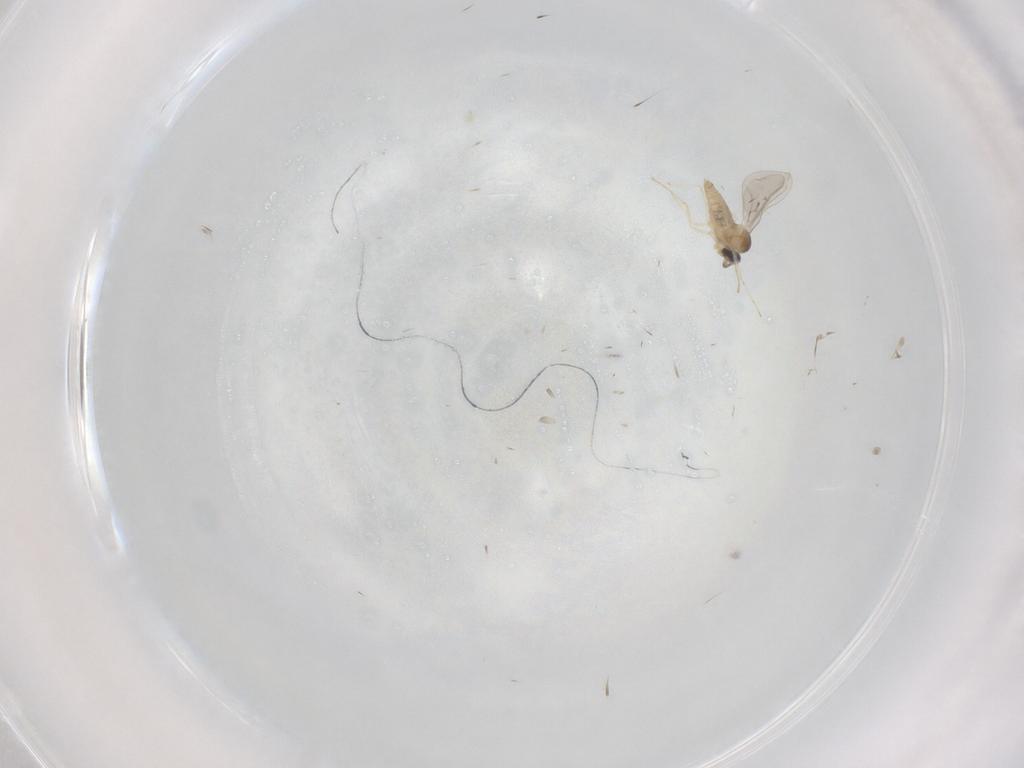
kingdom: Animalia
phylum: Arthropoda
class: Insecta
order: Diptera
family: Cecidomyiidae
